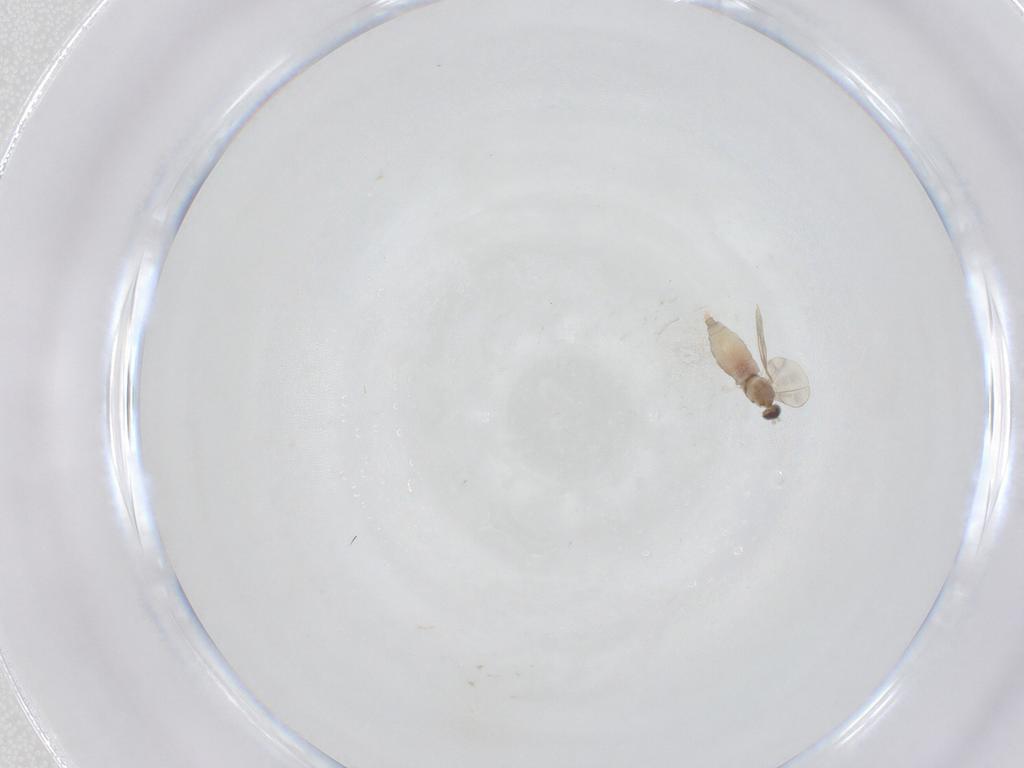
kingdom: Animalia
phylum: Arthropoda
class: Insecta
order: Diptera
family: Cecidomyiidae
